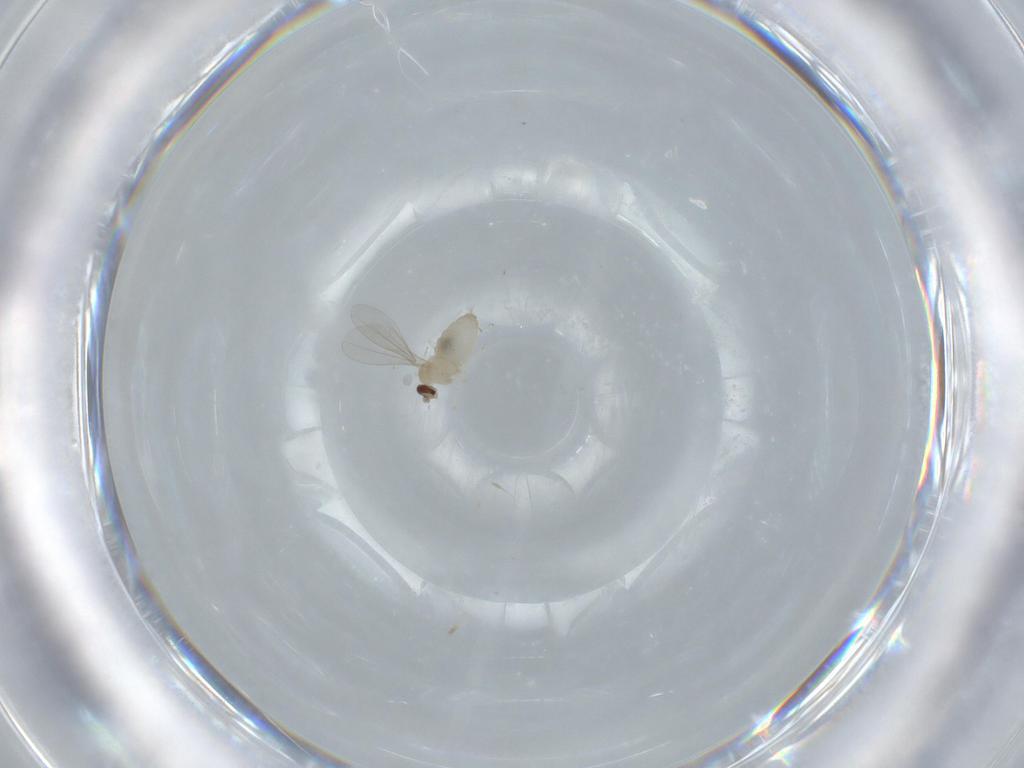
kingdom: Animalia
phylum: Arthropoda
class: Insecta
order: Diptera
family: Cecidomyiidae
